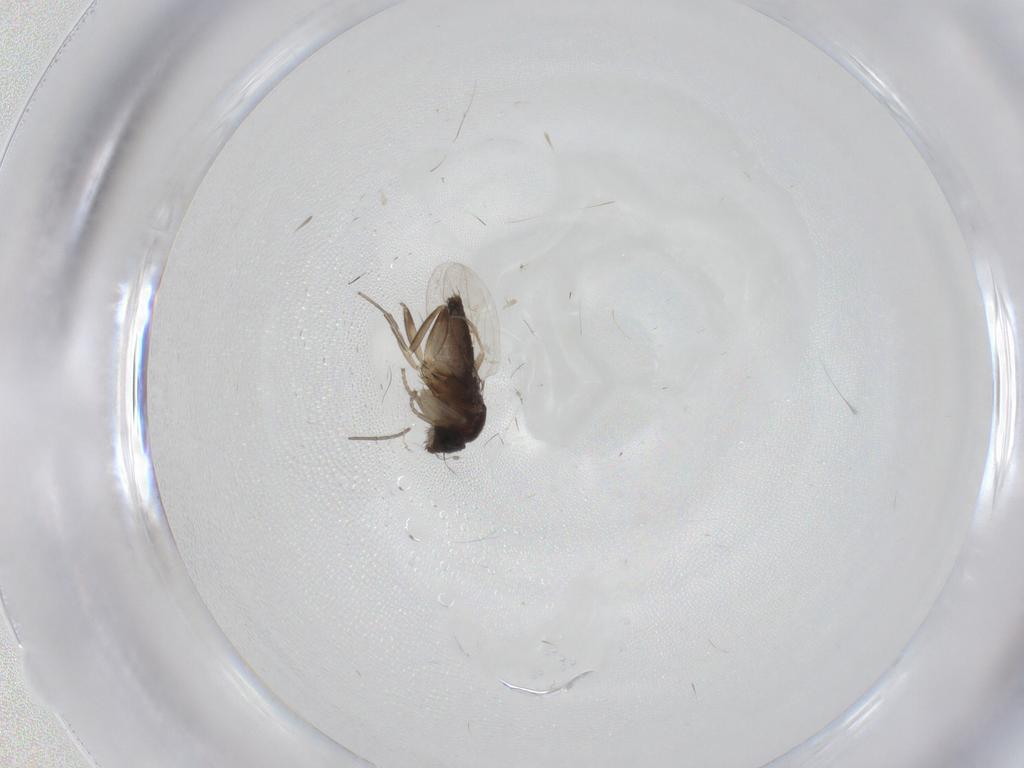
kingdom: Animalia
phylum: Arthropoda
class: Insecta
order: Diptera
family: Phoridae
